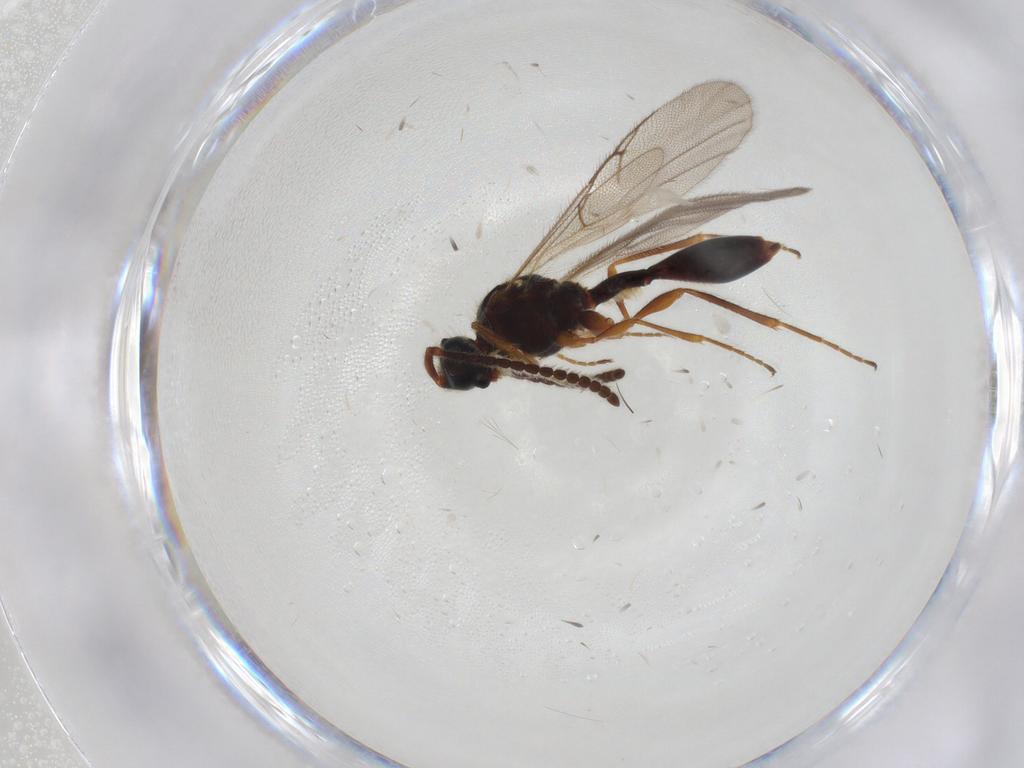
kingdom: Animalia
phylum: Arthropoda
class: Insecta
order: Hymenoptera
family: Diapriidae
